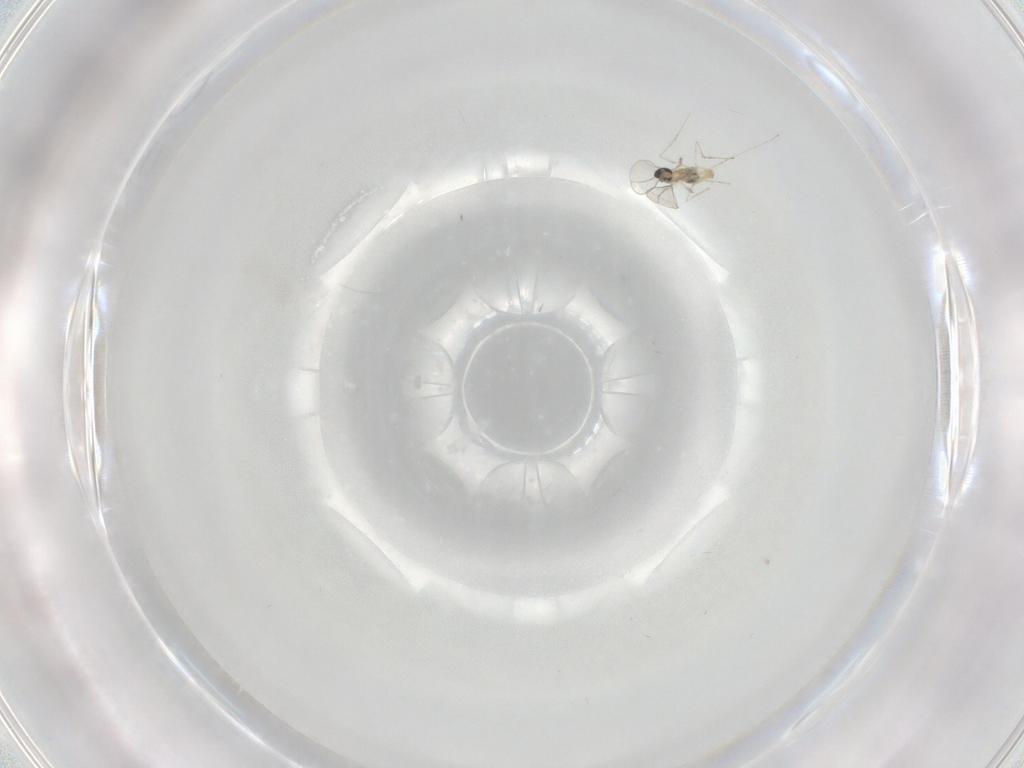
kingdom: Animalia
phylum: Arthropoda
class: Insecta
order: Diptera
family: Cecidomyiidae
